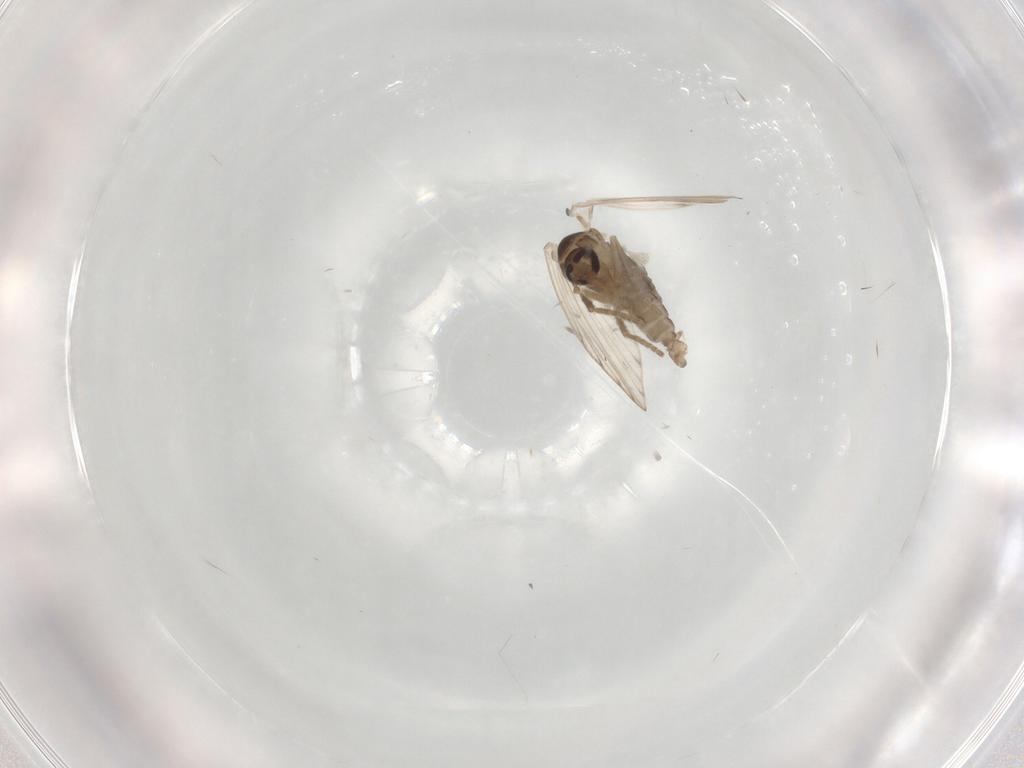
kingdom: Animalia
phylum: Arthropoda
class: Insecta
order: Diptera
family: Psychodidae
